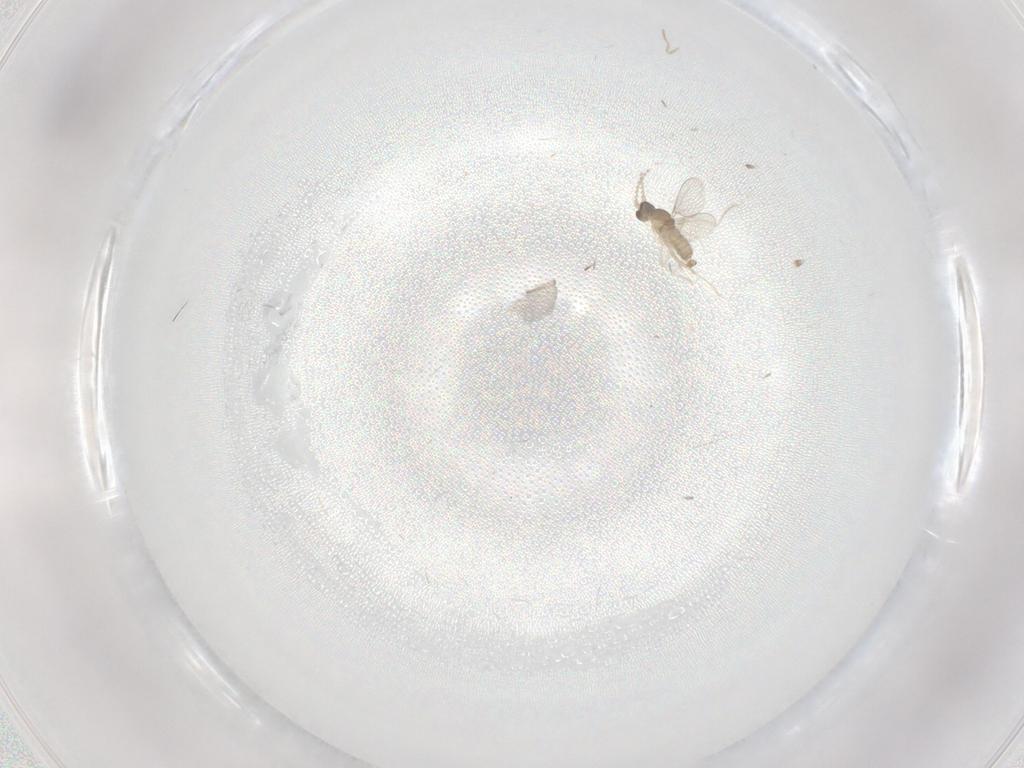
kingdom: Animalia
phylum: Arthropoda
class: Insecta
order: Diptera
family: Cecidomyiidae
